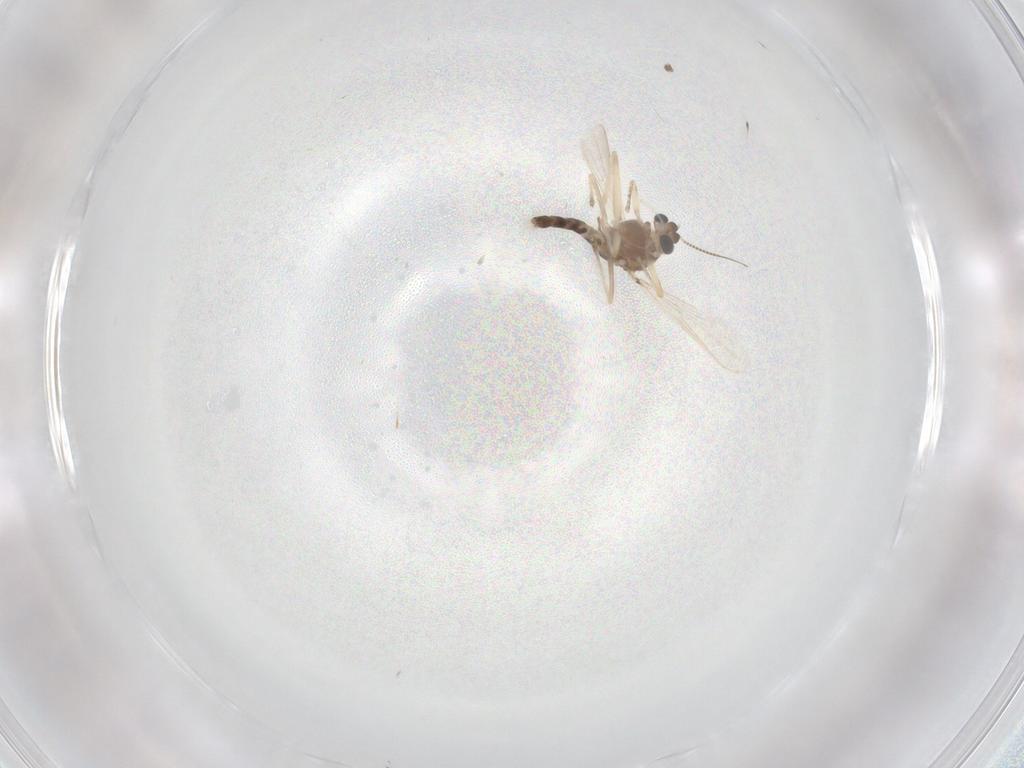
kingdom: Animalia
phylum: Arthropoda
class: Insecta
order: Diptera
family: Chironomidae
